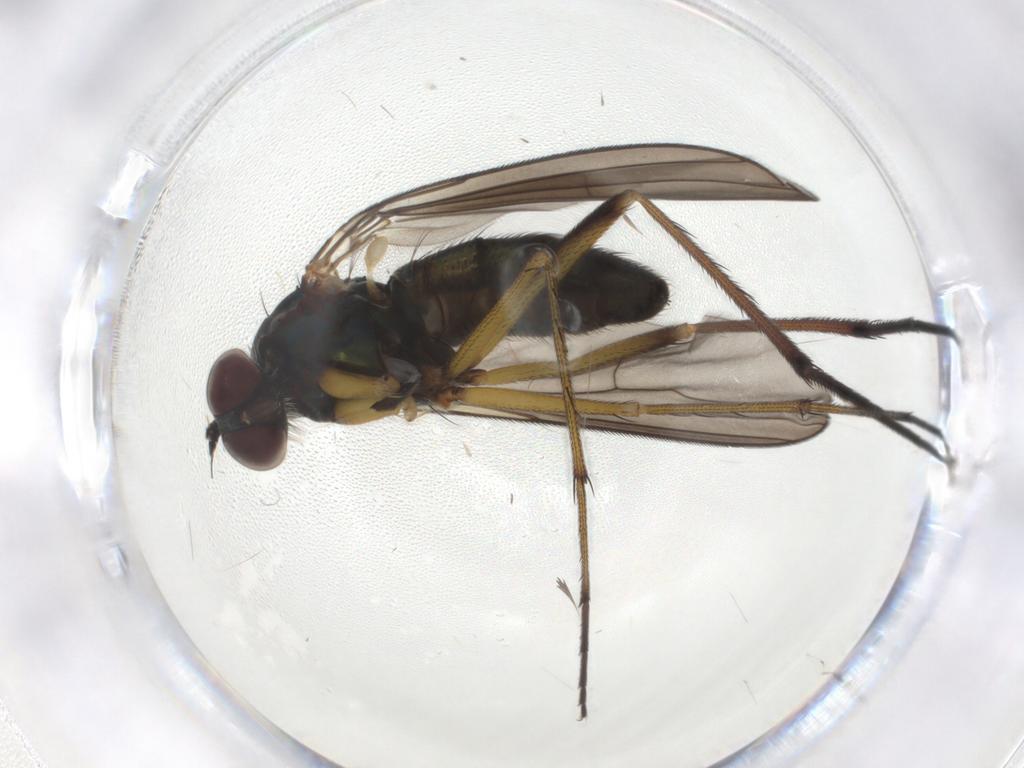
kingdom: Animalia
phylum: Arthropoda
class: Insecta
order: Diptera
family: Dolichopodidae
